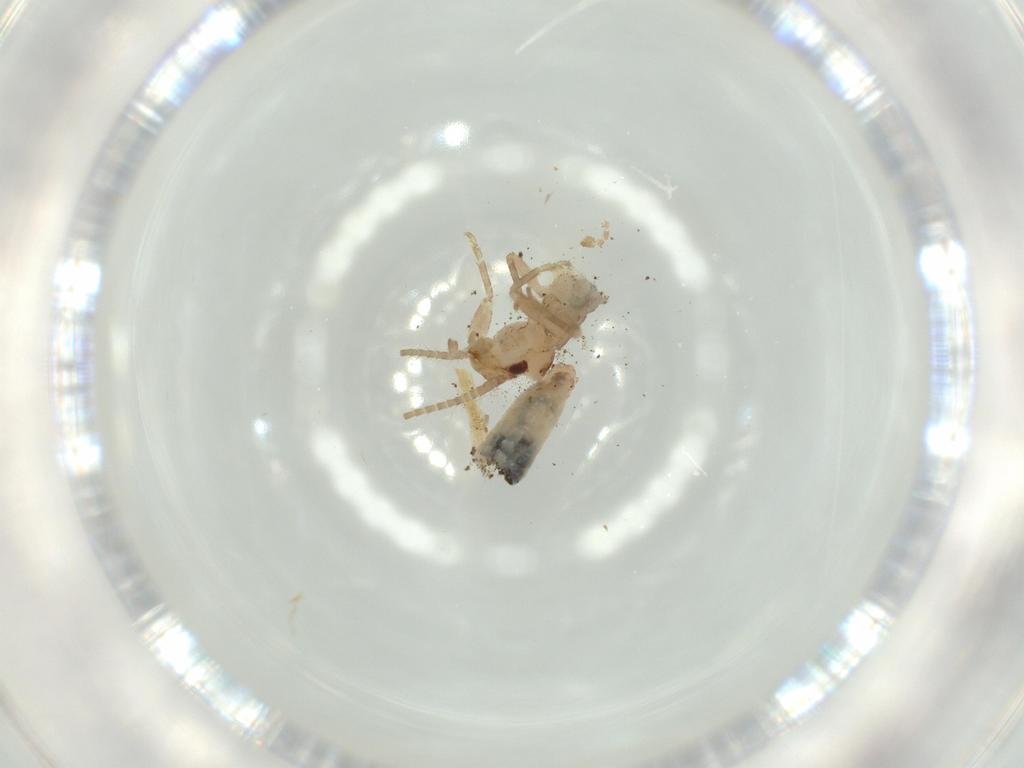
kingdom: Animalia
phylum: Arthropoda
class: Insecta
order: Orthoptera
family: Mogoplistidae
